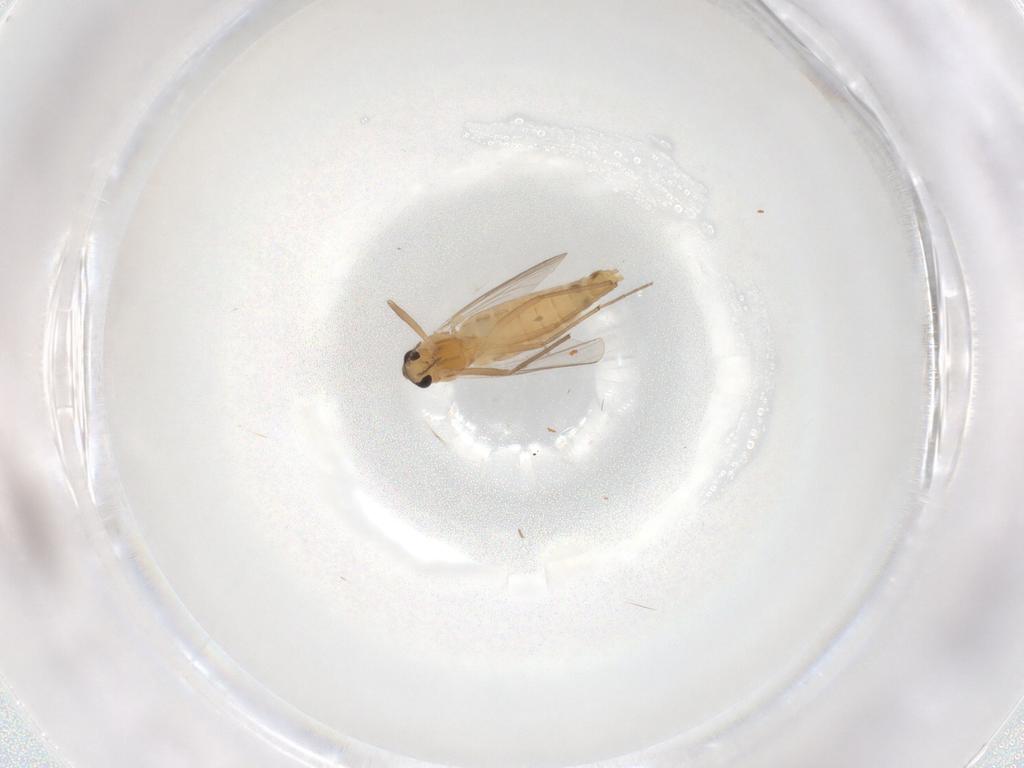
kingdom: Animalia
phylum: Arthropoda
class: Insecta
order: Diptera
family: Chironomidae
